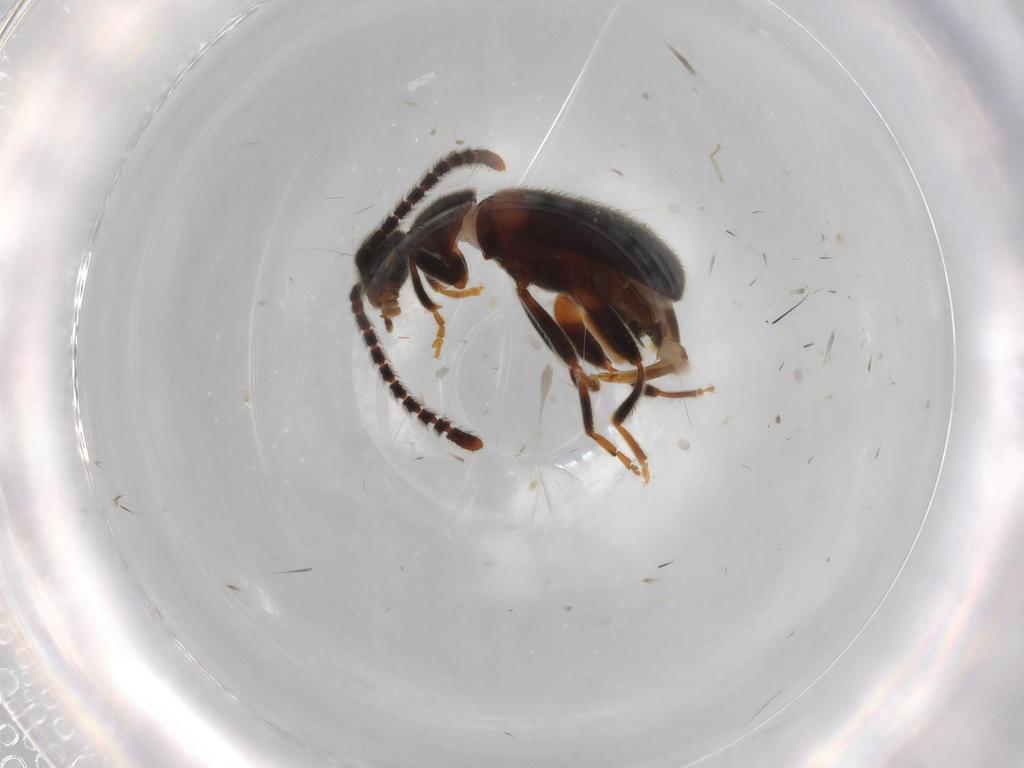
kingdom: Animalia
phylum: Arthropoda
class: Insecta
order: Coleoptera
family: Aderidae
